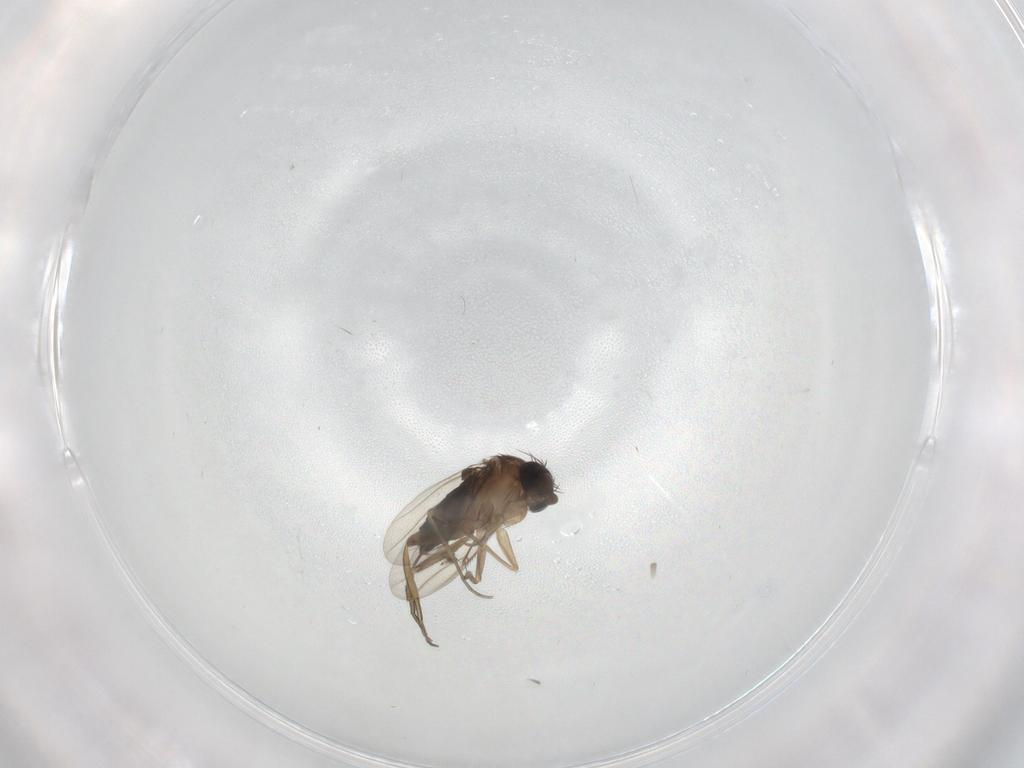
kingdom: Animalia
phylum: Arthropoda
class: Insecta
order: Diptera
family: Phoridae
